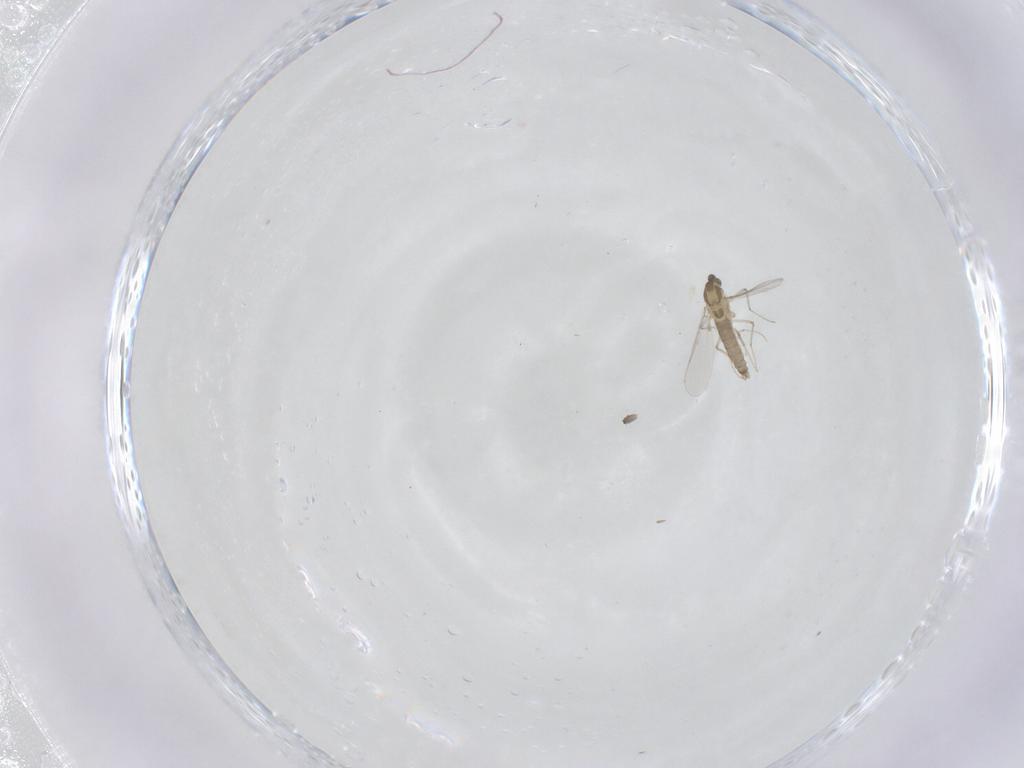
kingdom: Animalia
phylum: Arthropoda
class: Insecta
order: Diptera
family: Chironomidae
